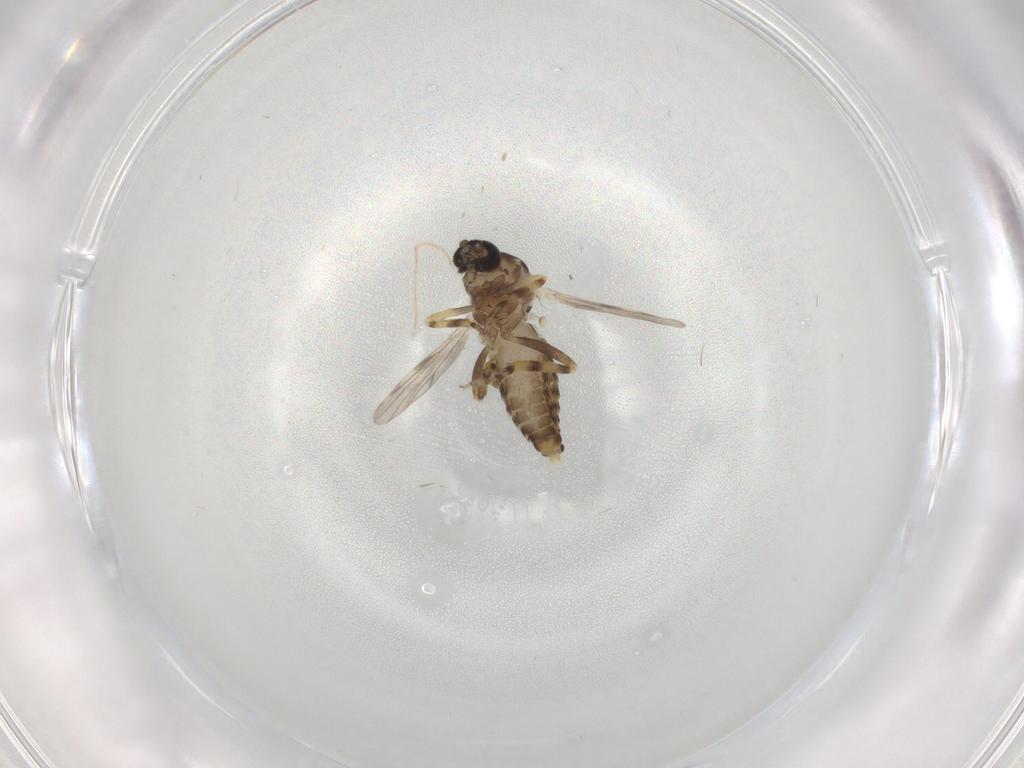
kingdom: Animalia
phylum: Arthropoda
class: Insecta
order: Diptera
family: Ceratopogonidae
